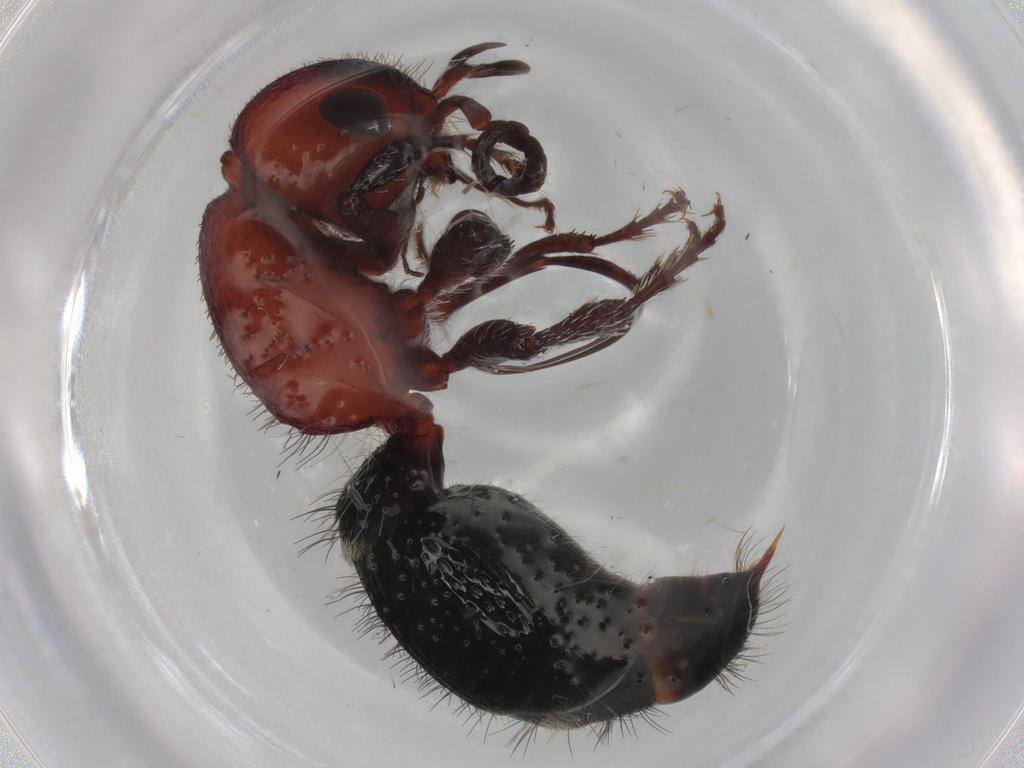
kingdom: Animalia
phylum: Arthropoda
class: Insecta
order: Hymenoptera
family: Mutillidae
